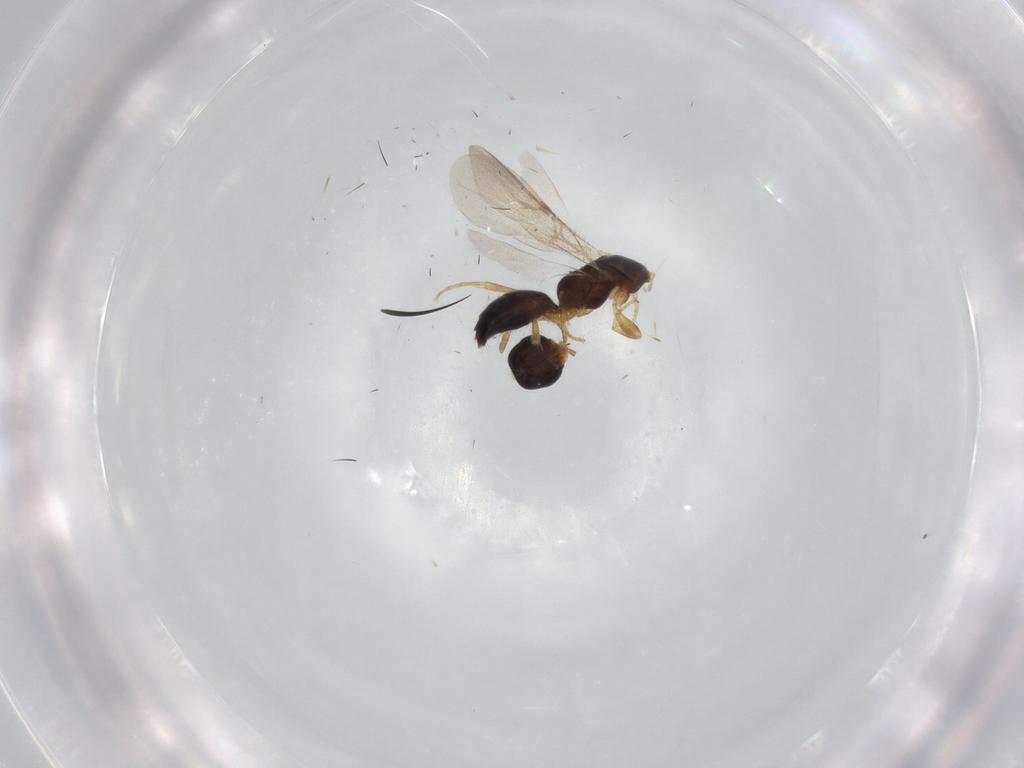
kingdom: Animalia
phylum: Arthropoda
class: Insecta
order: Hymenoptera
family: Bethylidae
